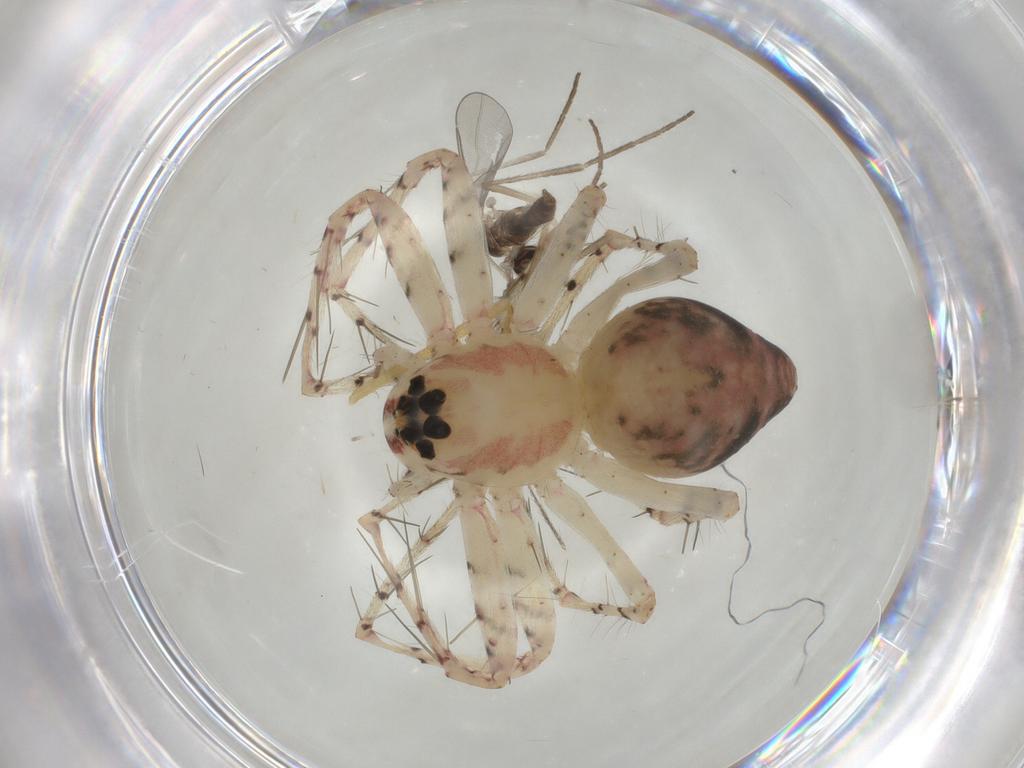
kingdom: Animalia
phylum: Arthropoda
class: Insecta
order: Diptera
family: Cecidomyiidae
